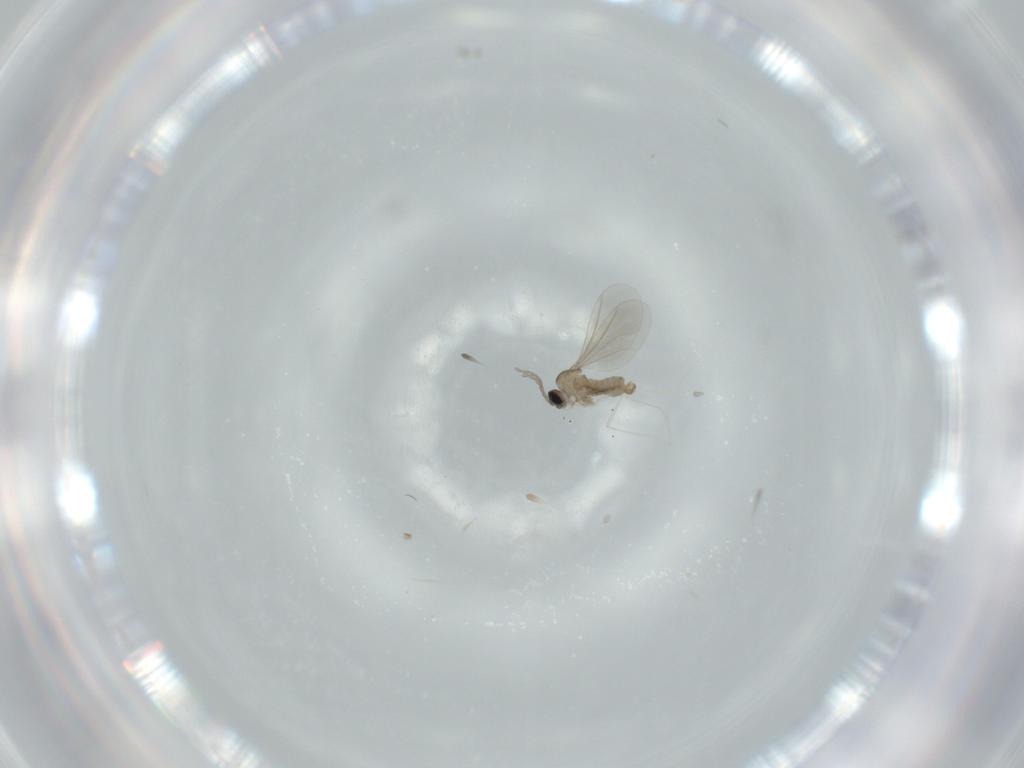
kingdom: Animalia
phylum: Arthropoda
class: Insecta
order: Diptera
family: Cecidomyiidae
